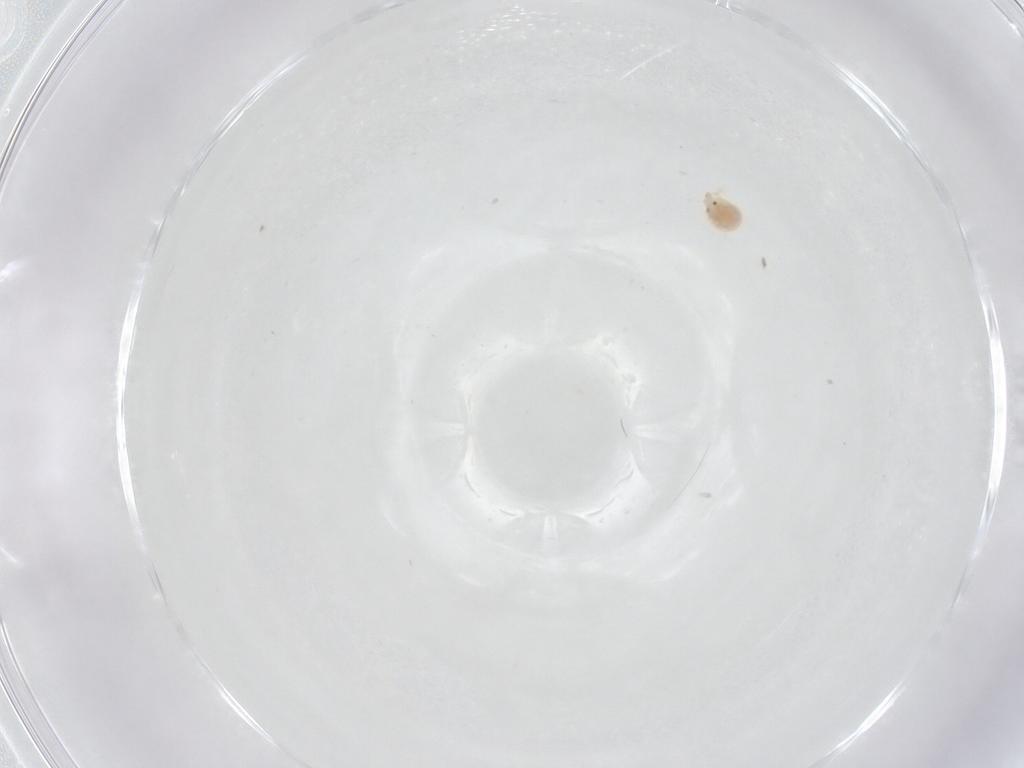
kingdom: Animalia
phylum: Arthropoda
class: Arachnida
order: Trombidiformes
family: Pionidae
